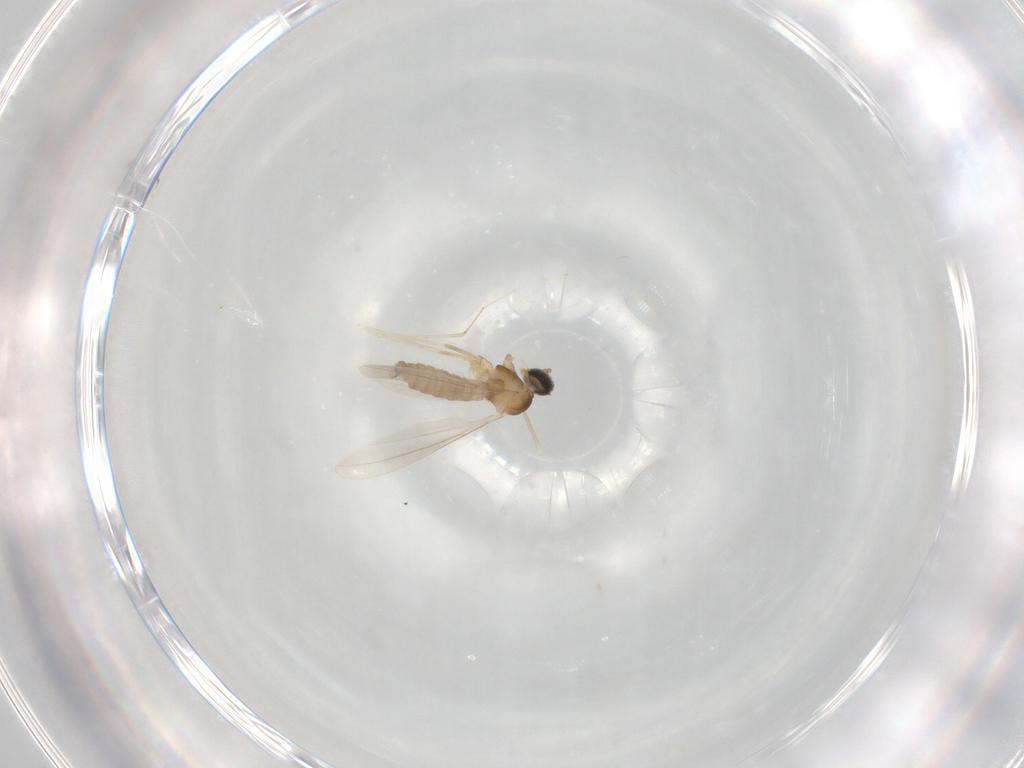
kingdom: Animalia
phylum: Arthropoda
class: Insecta
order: Diptera
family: Cecidomyiidae
